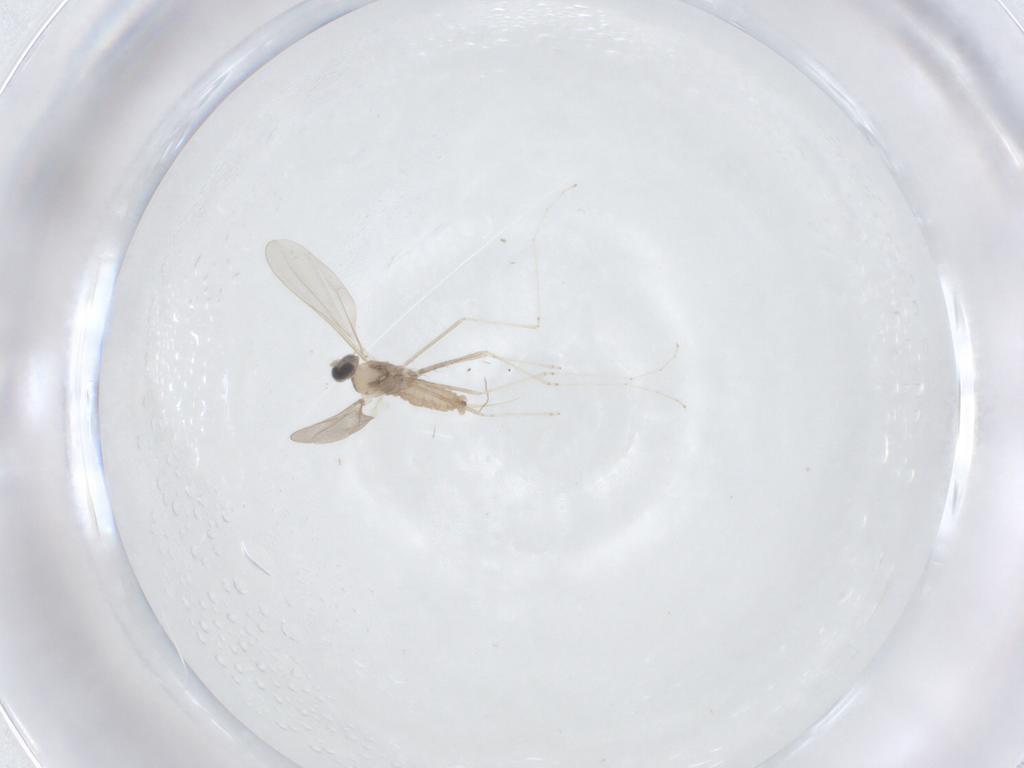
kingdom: Animalia
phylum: Arthropoda
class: Insecta
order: Diptera
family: Cecidomyiidae
